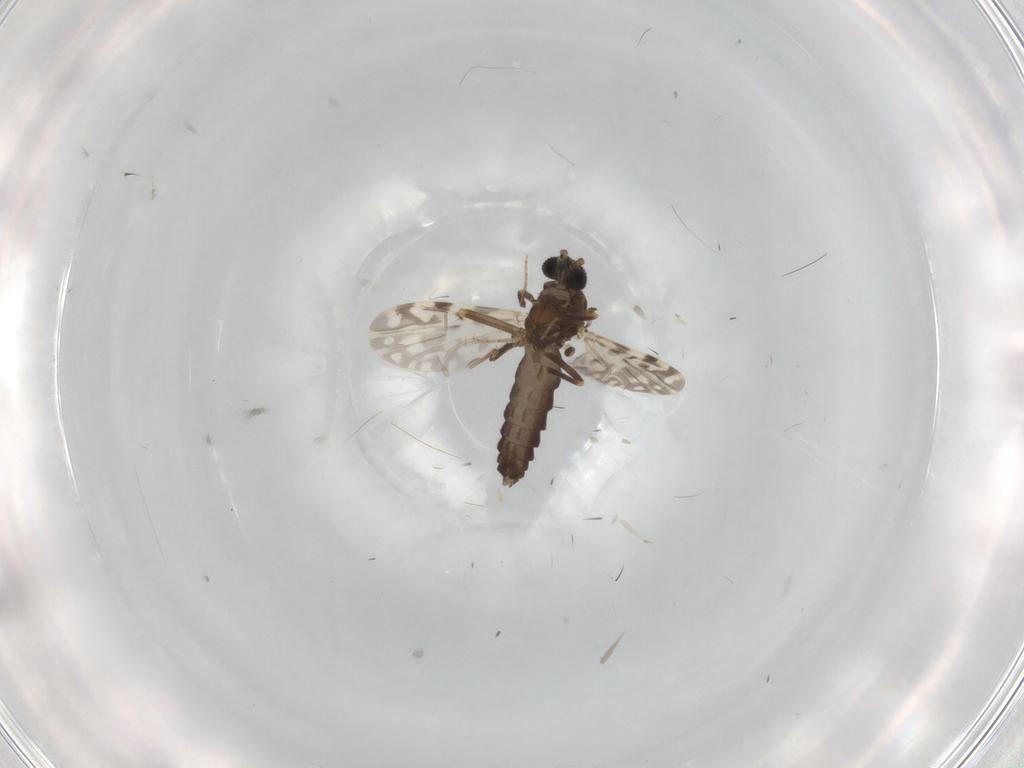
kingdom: Animalia
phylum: Arthropoda
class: Insecta
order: Diptera
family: Ceratopogonidae
